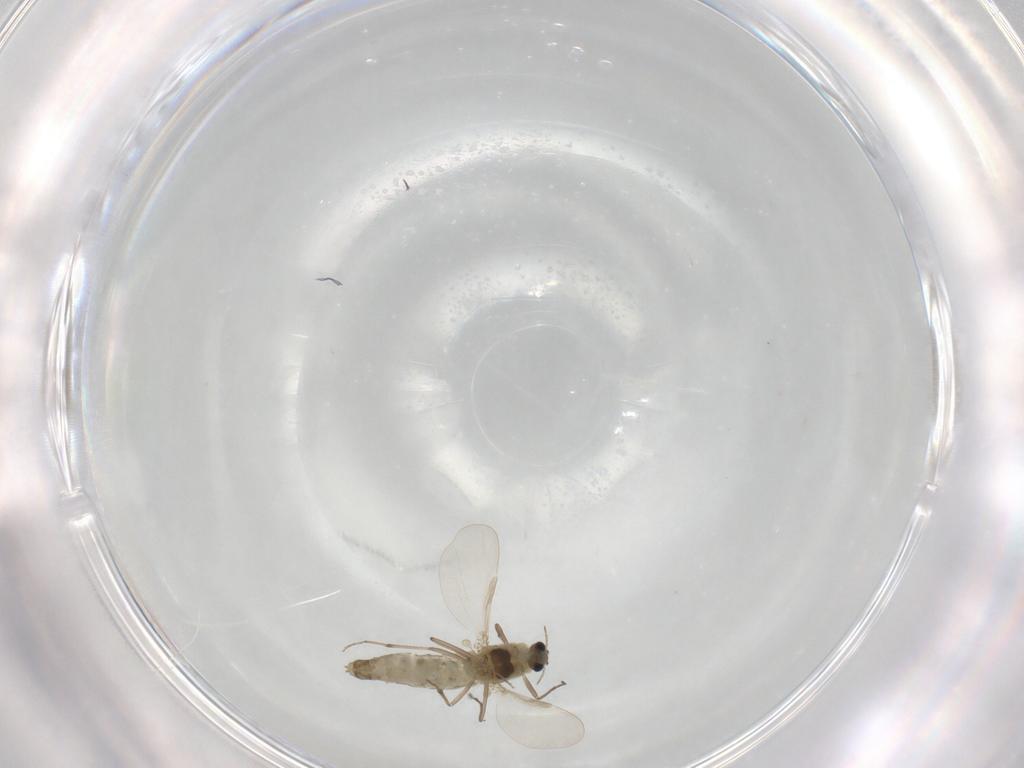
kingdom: Animalia
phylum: Arthropoda
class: Insecta
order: Diptera
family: Chironomidae
